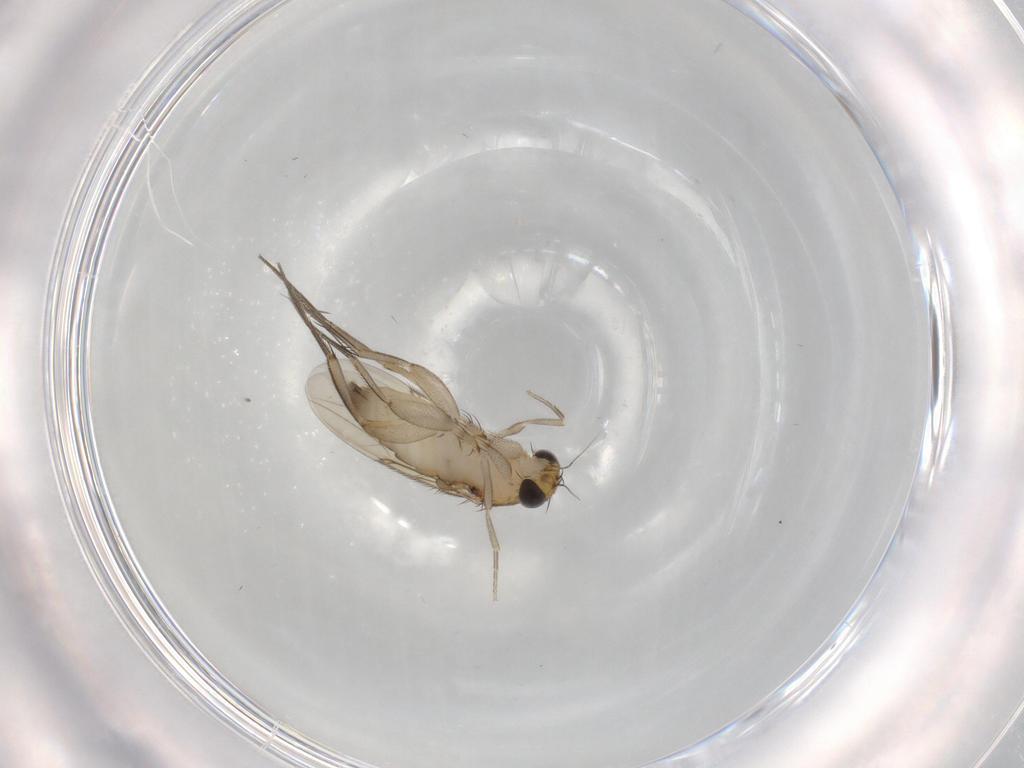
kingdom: Animalia
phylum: Arthropoda
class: Insecta
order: Diptera
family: Phoridae
